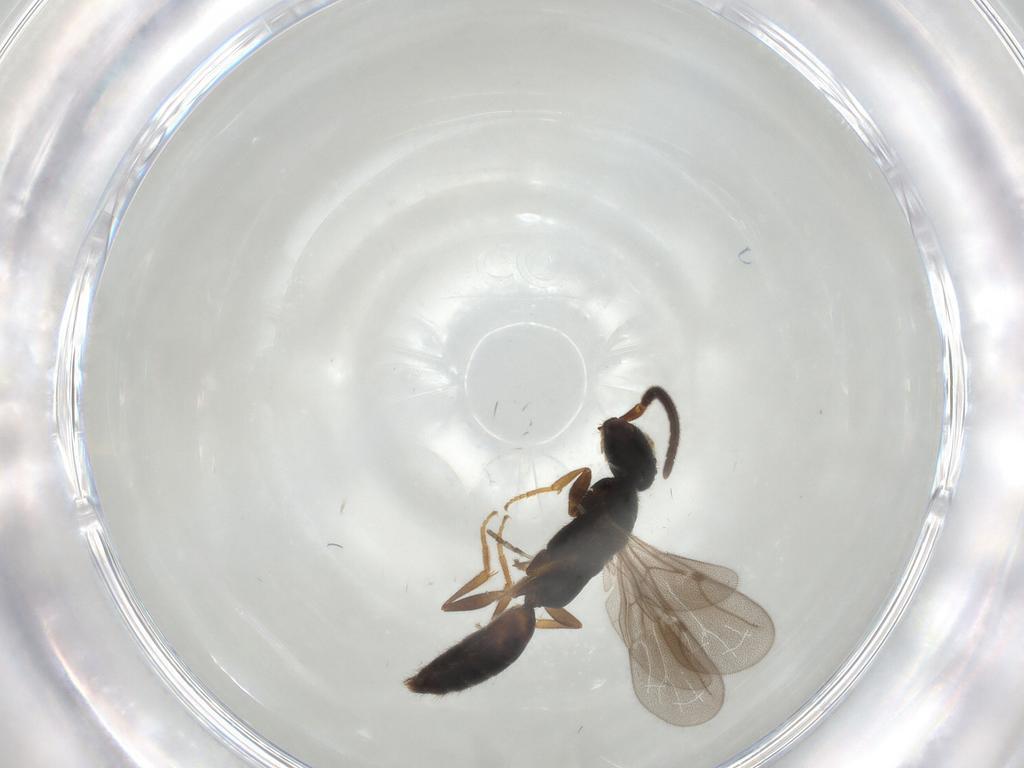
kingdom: Animalia
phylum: Arthropoda
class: Insecta
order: Hymenoptera
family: Bethylidae
